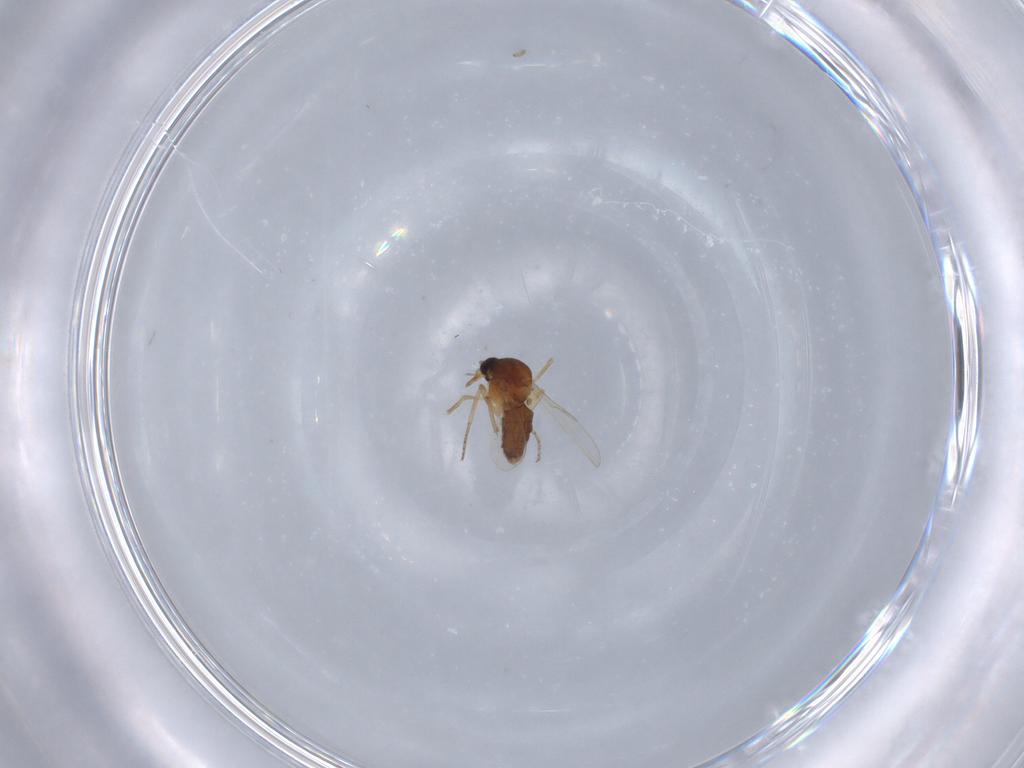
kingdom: Animalia
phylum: Arthropoda
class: Insecta
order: Diptera
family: Ceratopogonidae
